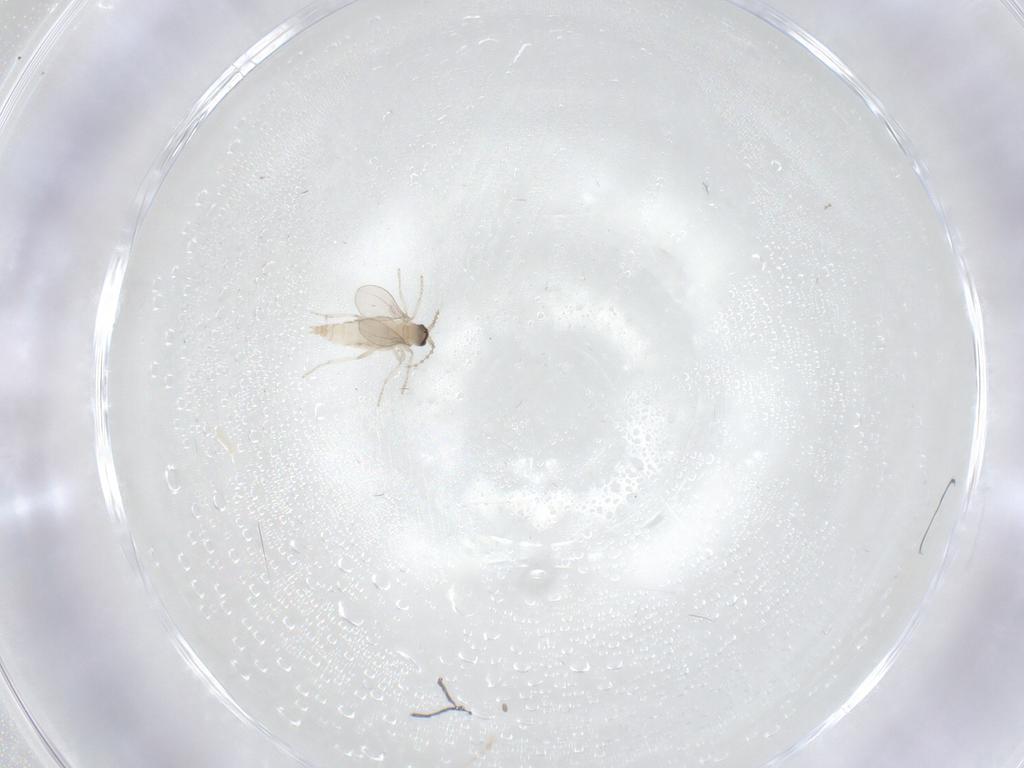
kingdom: Animalia
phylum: Arthropoda
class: Insecta
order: Diptera
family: Cecidomyiidae
